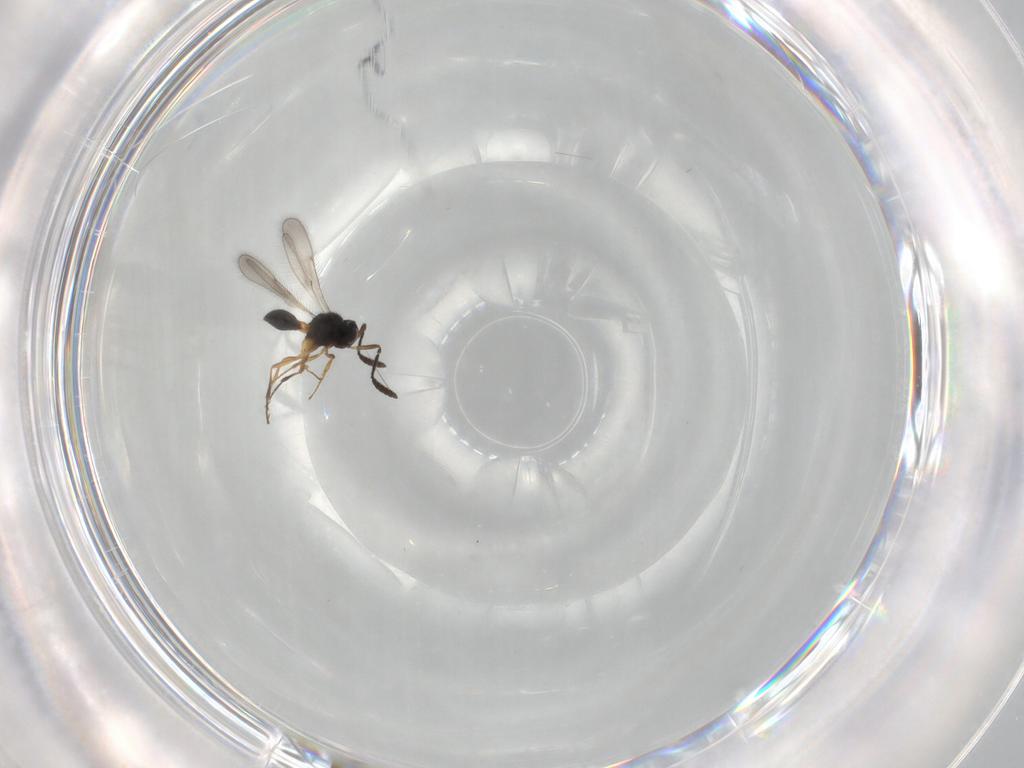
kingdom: Animalia
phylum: Arthropoda
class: Insecta
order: Hymenoptera
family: Scelionidae
